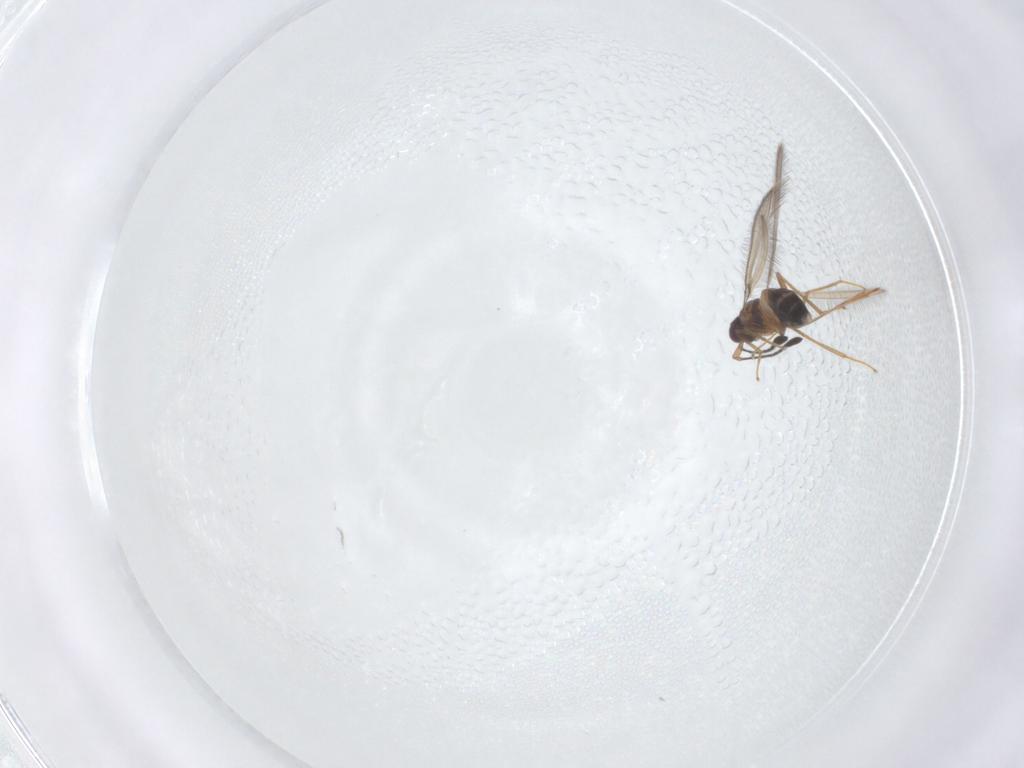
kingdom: Animalia
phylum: Arthropoda
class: Insecta
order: Hymenoptera
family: Mymaridae
